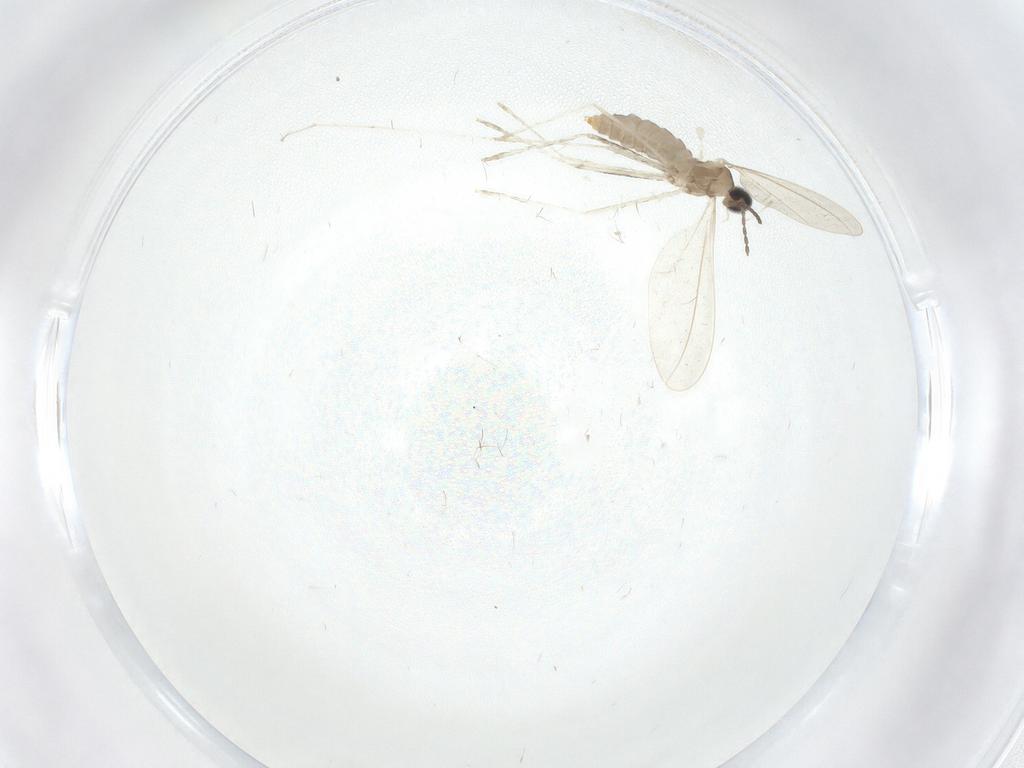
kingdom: Animalia
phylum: Arthropoda
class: Insecta
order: Diptera
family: Cecidomyiidae
